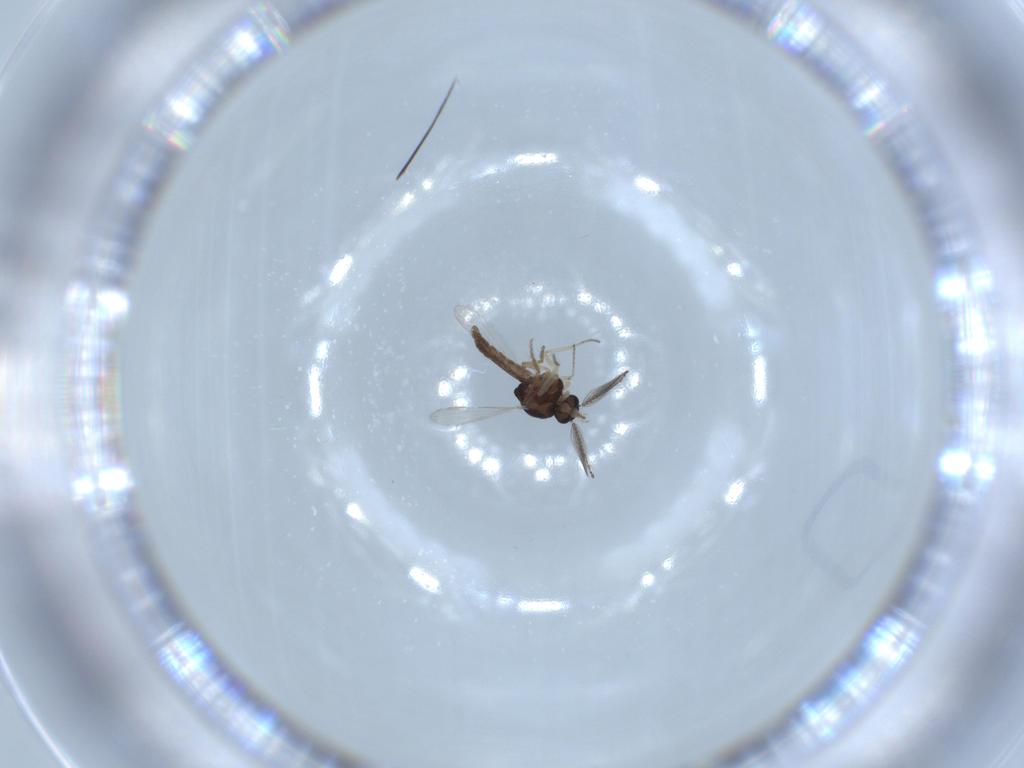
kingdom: Animalia
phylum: Arthropoda
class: Insecta
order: Diptera
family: Ceratopogonidae
